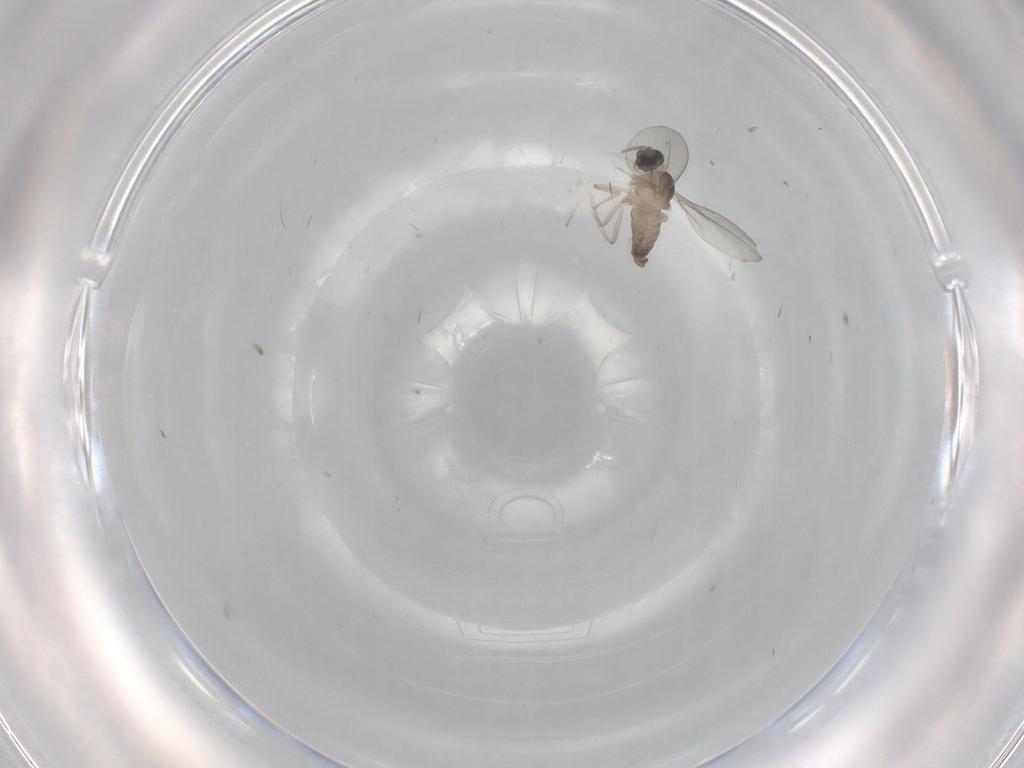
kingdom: Animalia
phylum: Arthropoda
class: Insecta
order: Diptera
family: Cecidomyiidae
